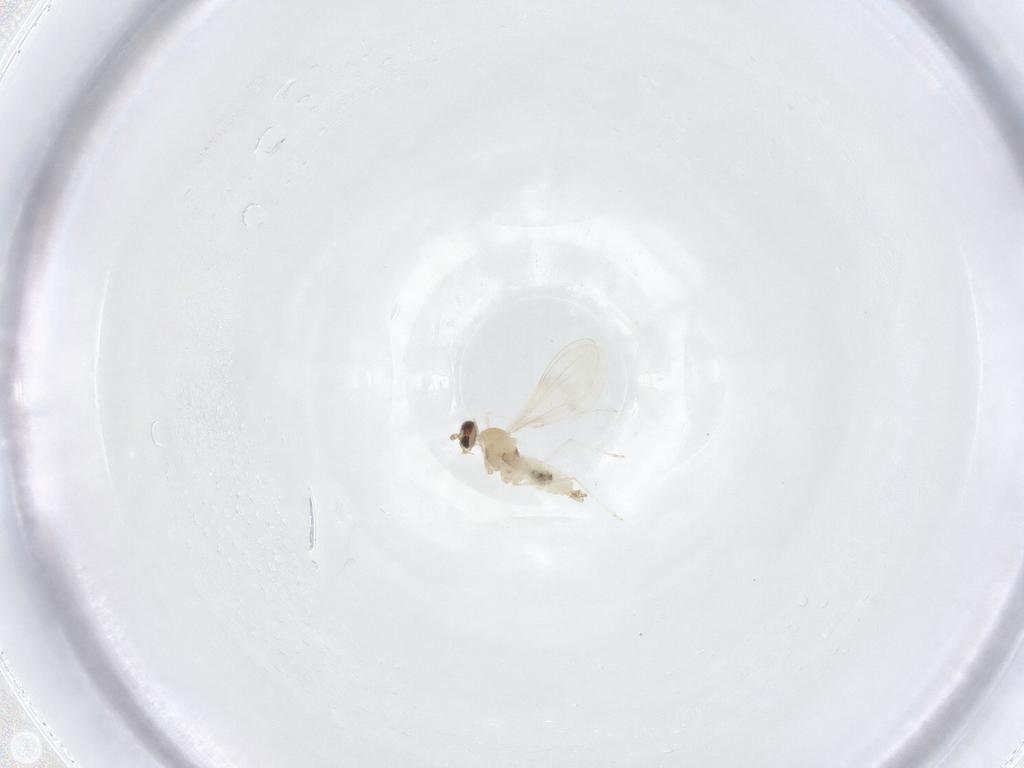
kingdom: Animalia
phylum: Arthropoda
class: Insecta
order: Diptera
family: Cecidomyiidae
